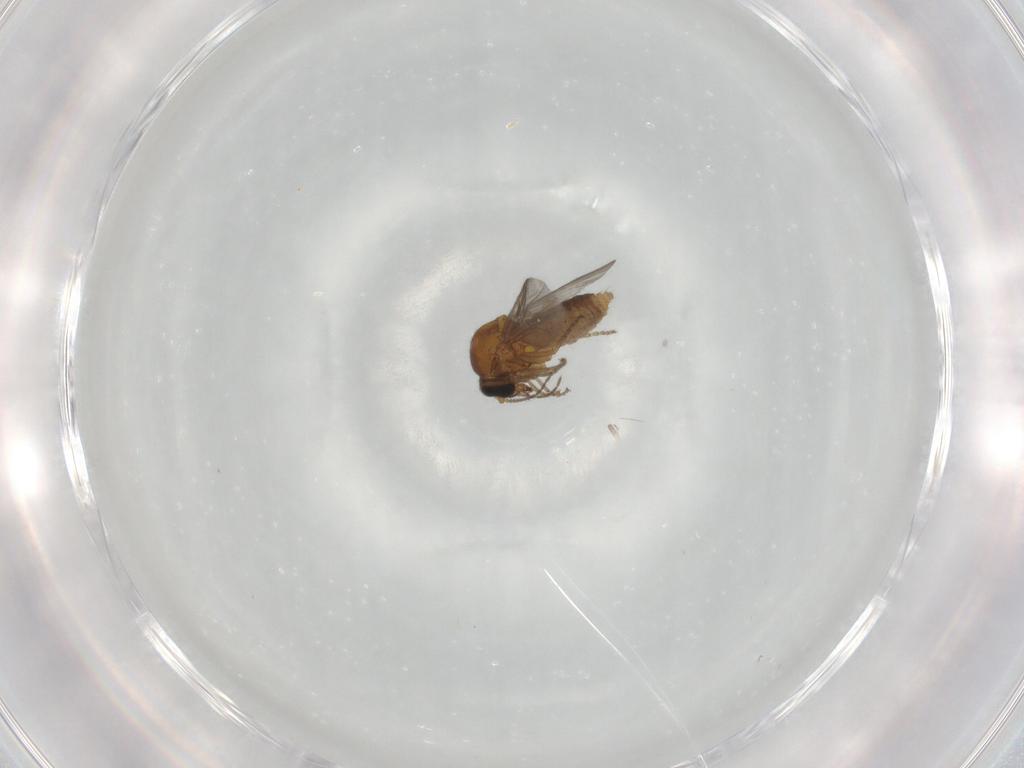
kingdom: Animalia
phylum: Arthropoda
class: Insecta
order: Diptera
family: Ceratopogonidae
